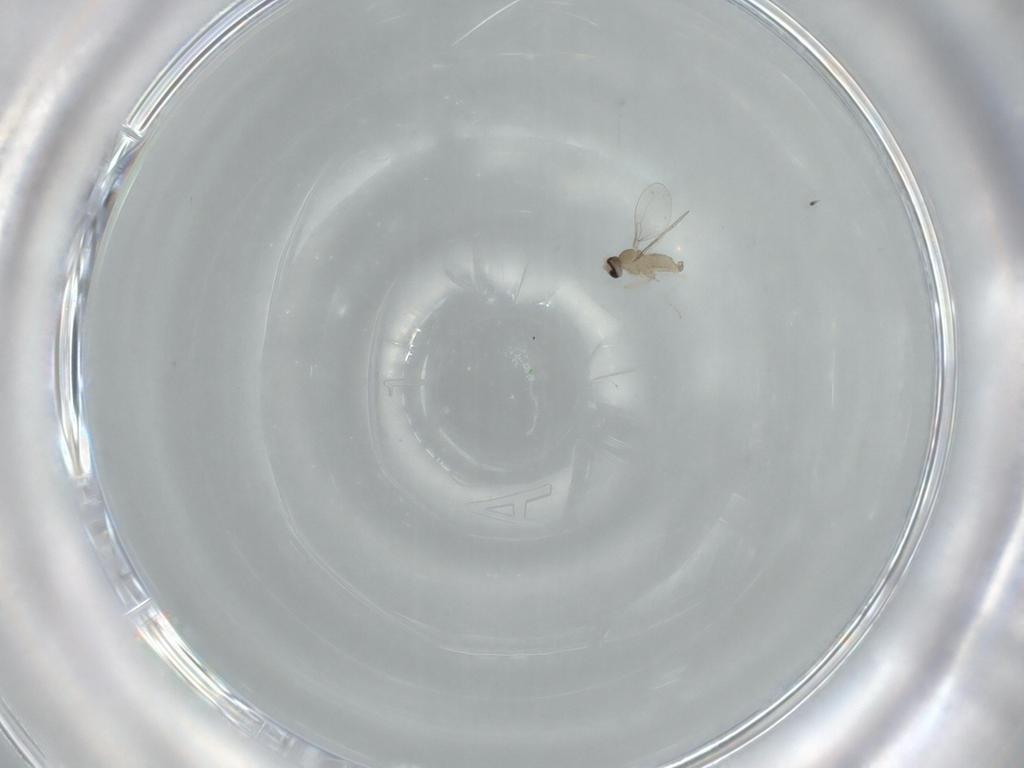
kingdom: Animalia
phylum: Arthropoda
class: Insecta
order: Diptera
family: Cecidomyiidae
